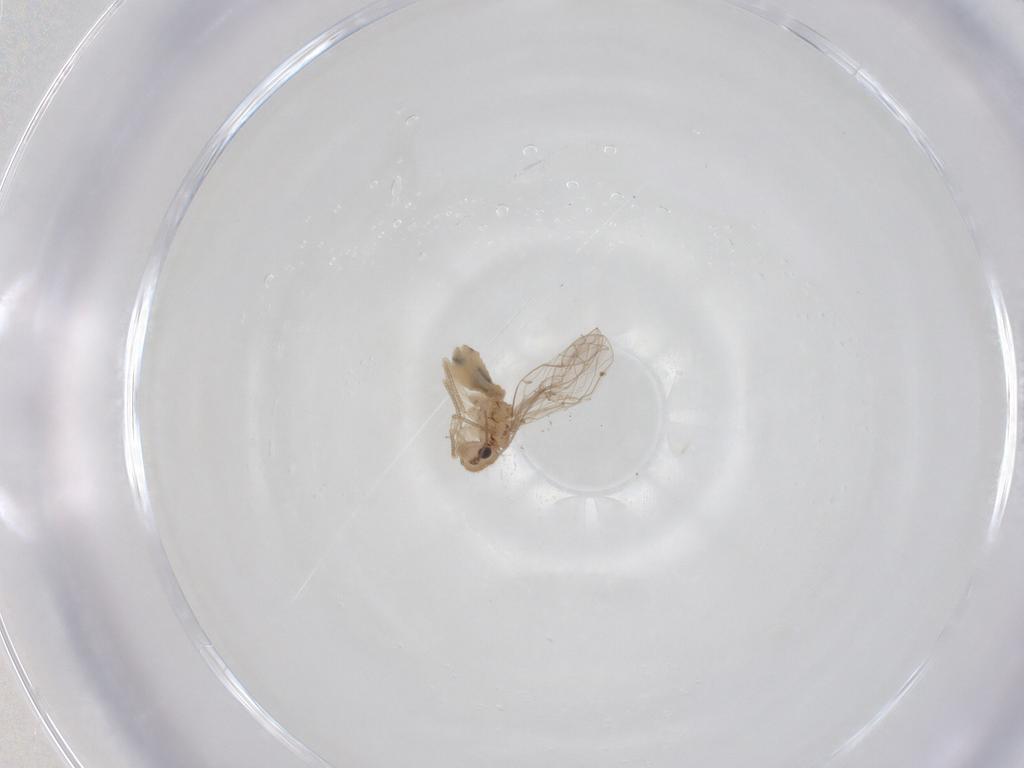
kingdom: Animalia
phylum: Arthropoda
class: Insecta
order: Psocodea
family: Ectopsocidae
